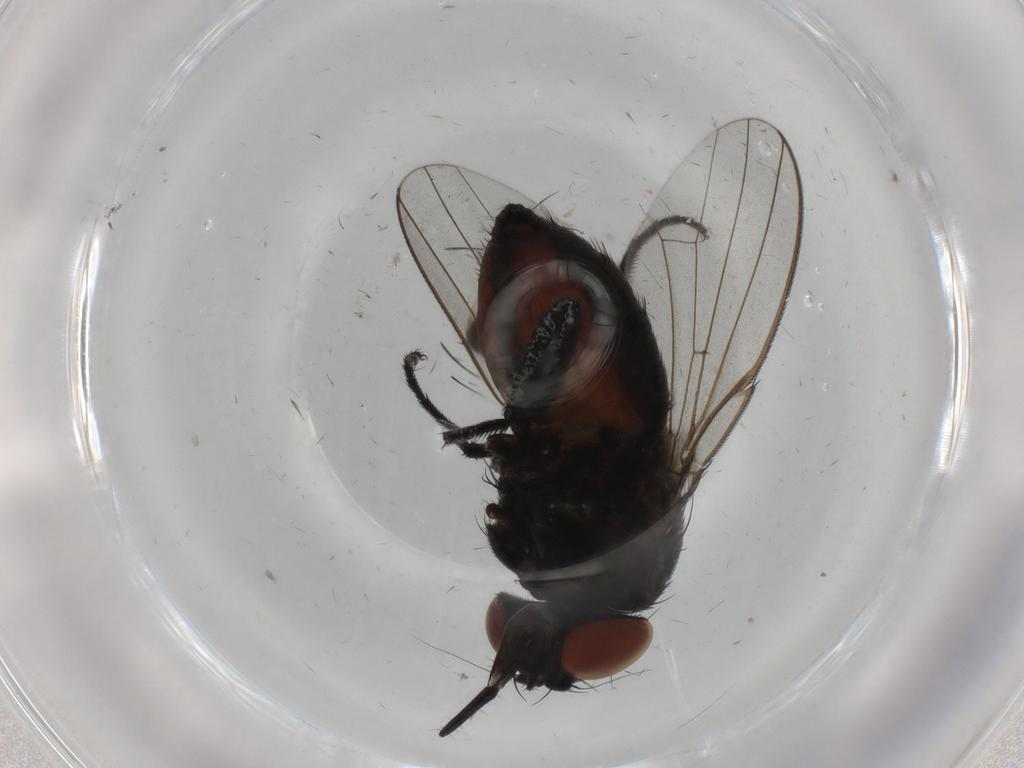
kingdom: Animalia
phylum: Arthropoda
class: Insecta
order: Diptera
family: Milichiidae
